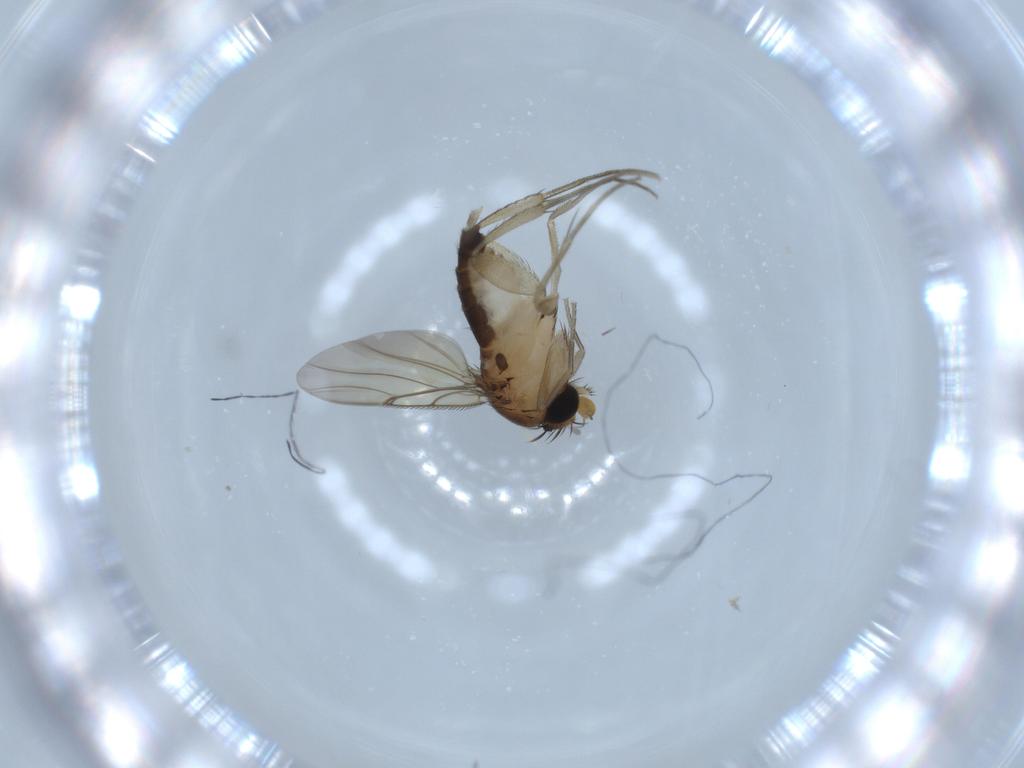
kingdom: Animalia
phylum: Arthropoda
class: Insecta
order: Diptera
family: Phoridae
